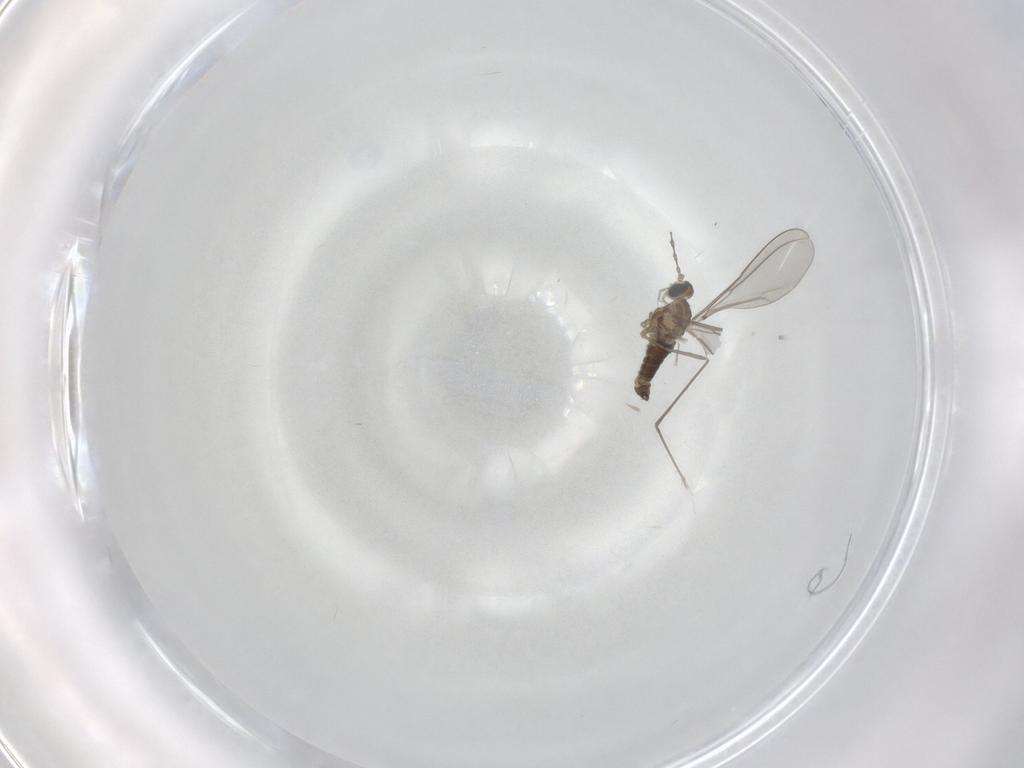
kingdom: Animalia
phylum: Arthropoda
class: Insecta
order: Diptera
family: Cecidomyiidae
